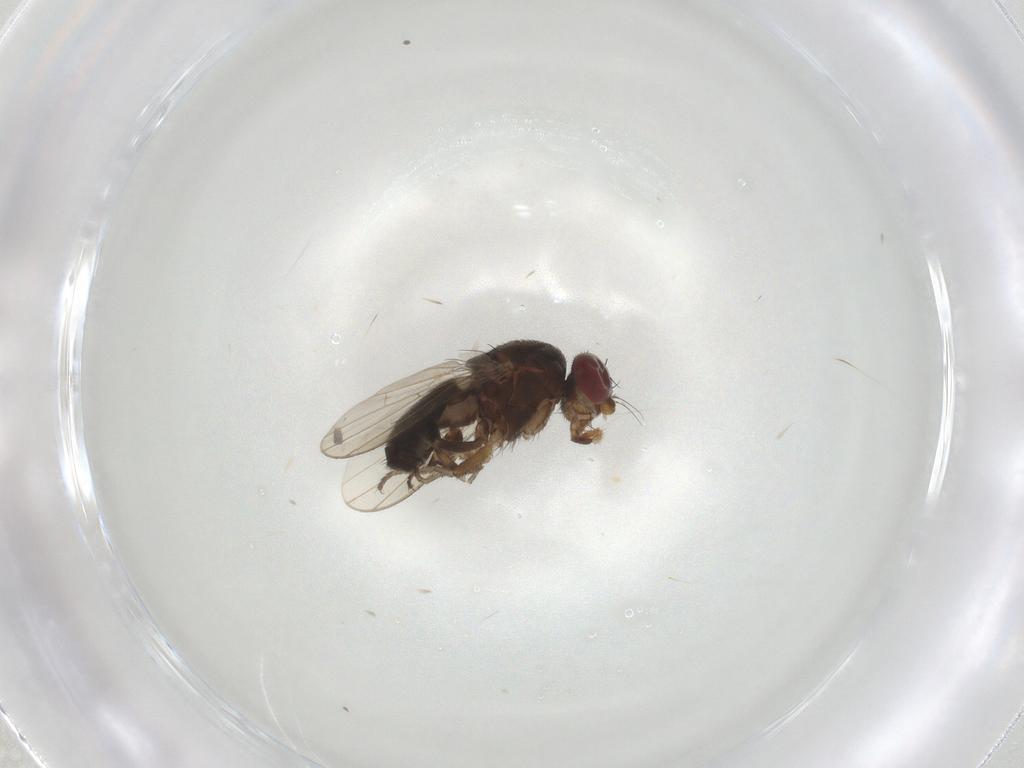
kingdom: Animalia
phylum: Arthropoda
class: Insecta
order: Diptera
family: Heleomyzidae
